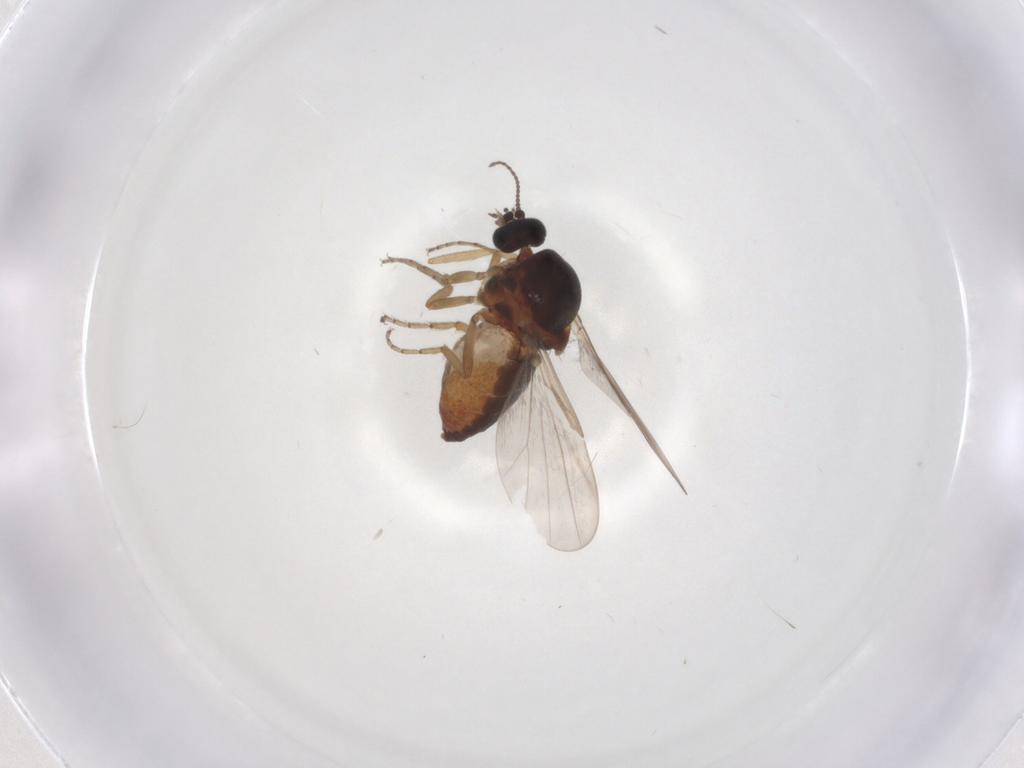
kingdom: Animalia
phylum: Arthropoda
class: Insecta
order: Diptera
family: Ceratopogonidae
